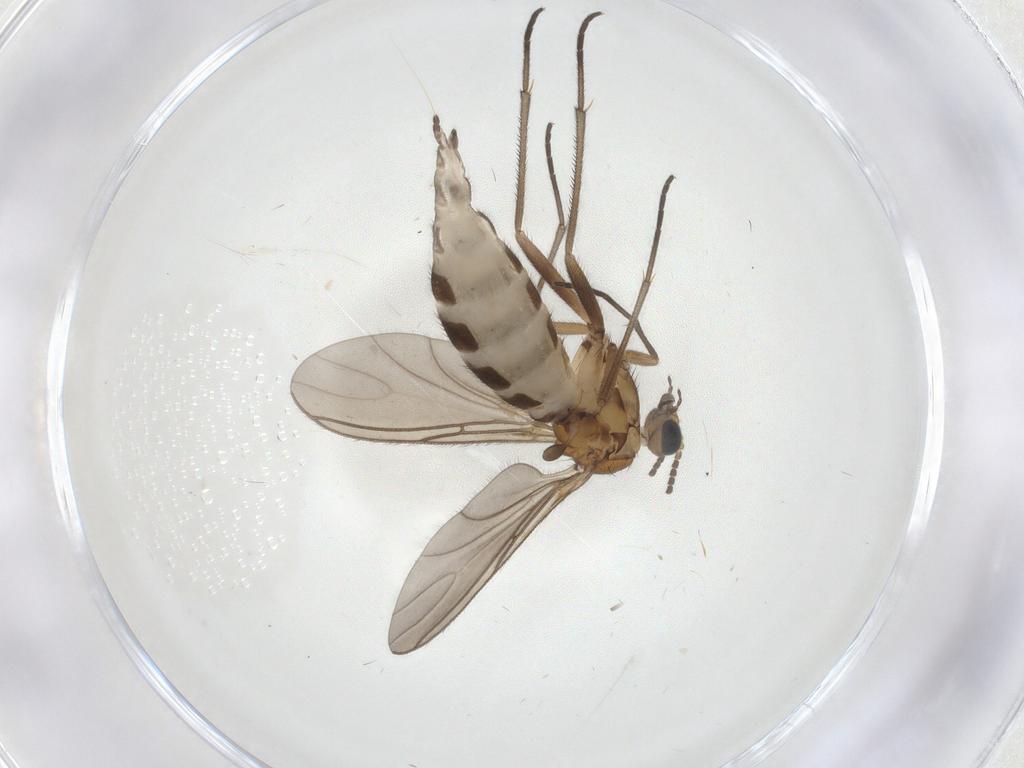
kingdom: Animalia
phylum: Arthropoda
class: Insecta
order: Diptera
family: Sciaridae
